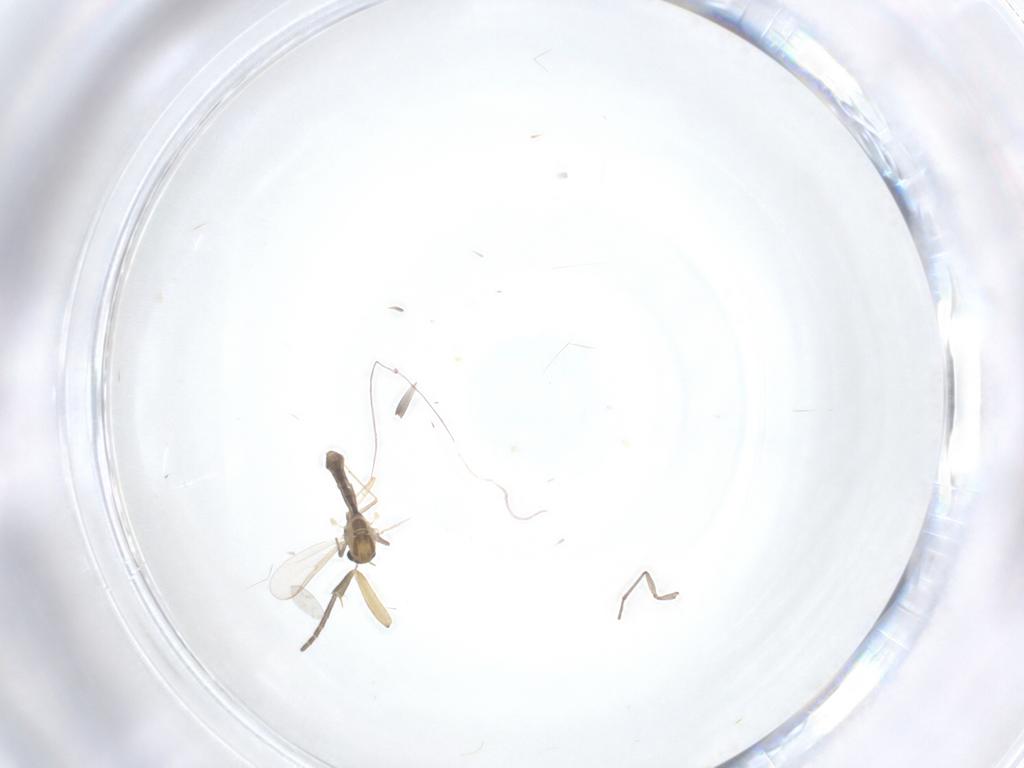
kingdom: Animalia
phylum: Arthropoda
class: Insecta
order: Diptera
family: Chironomidae
